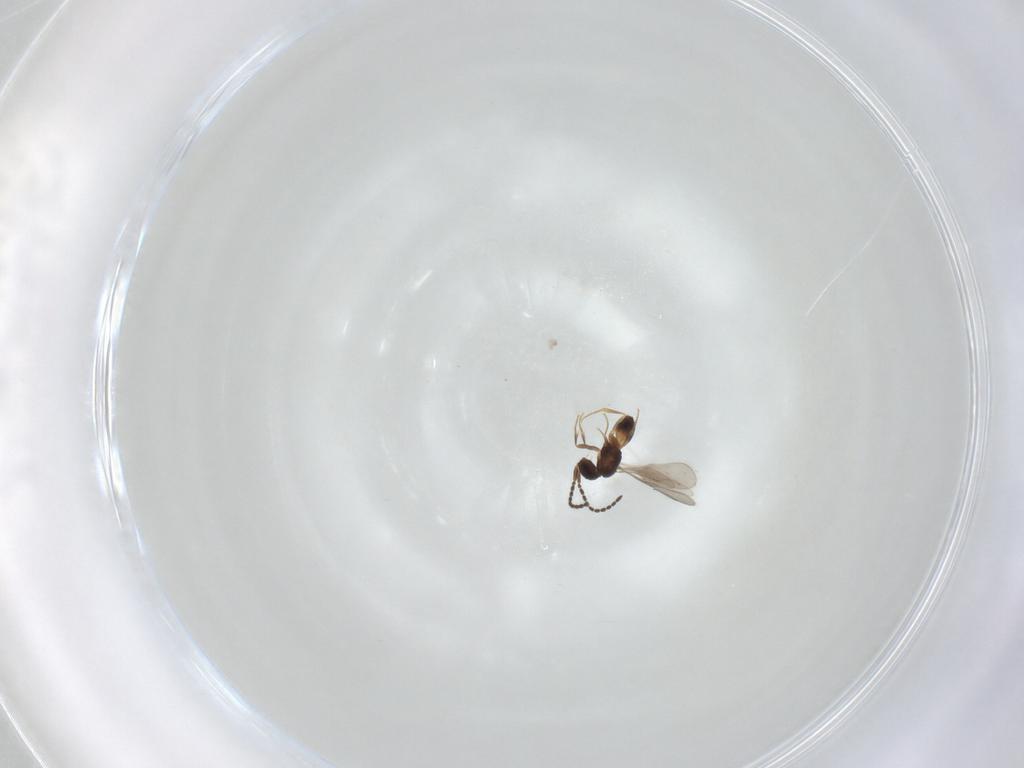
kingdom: Animalia
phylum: Arthropoda
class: Insecta
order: Hymenoptera
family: Ceraphronidae
